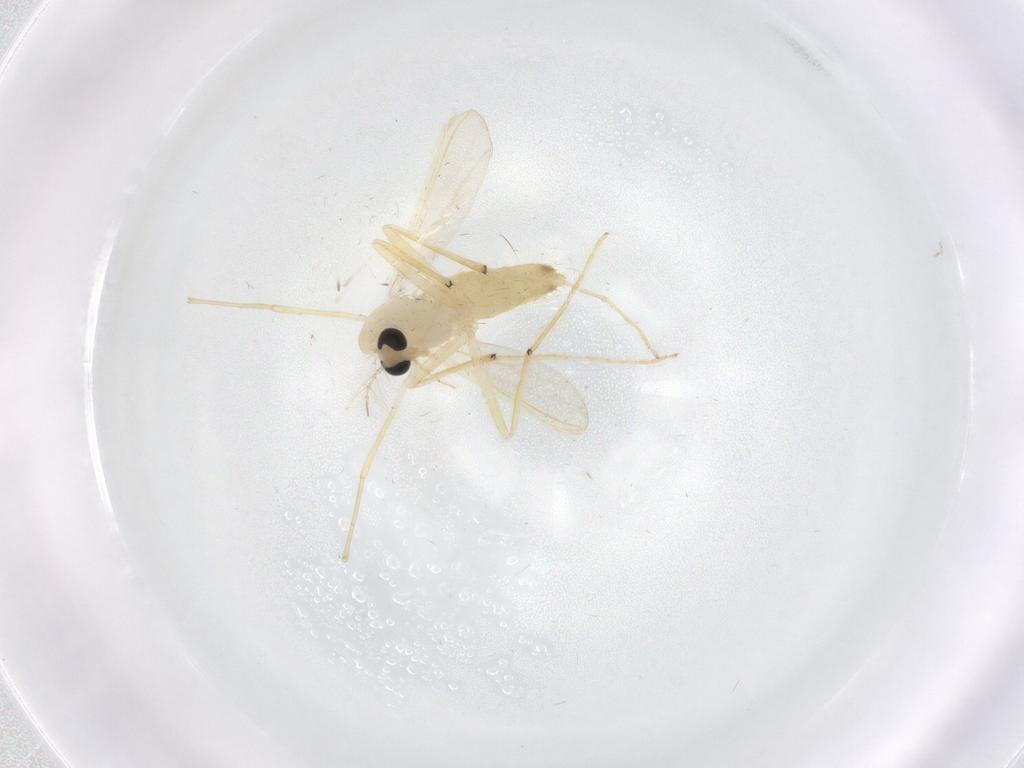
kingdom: Animalia
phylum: Arthropoda
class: Insecta
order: Diptera
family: Chironomidae
